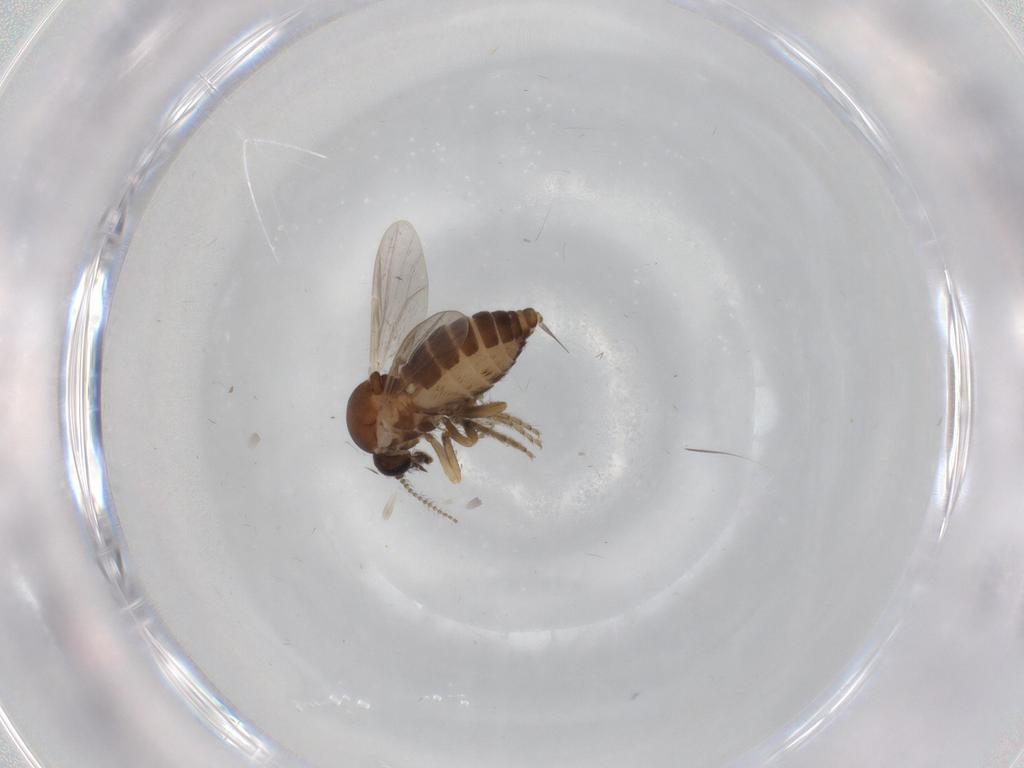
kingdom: Animalia
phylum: Arthropoda
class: Insecta
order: Diptera
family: Ceratopogonidae
